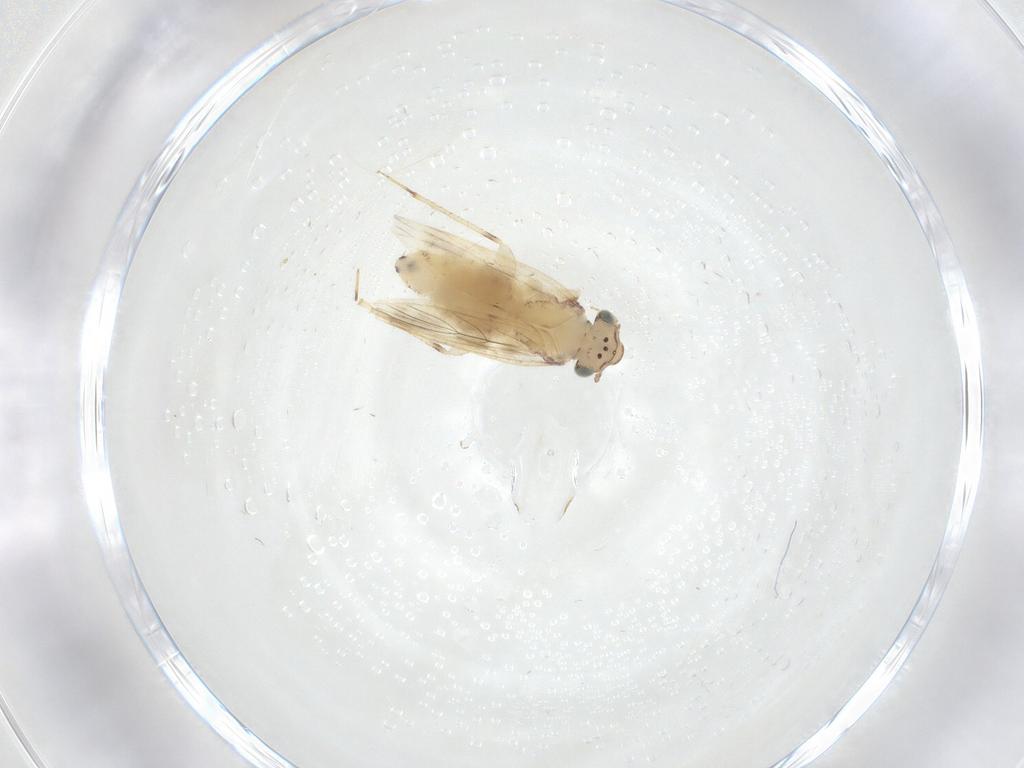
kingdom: Animalia
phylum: Arthropoda
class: Insecta
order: Psocodea
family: Lepidopsocidae
